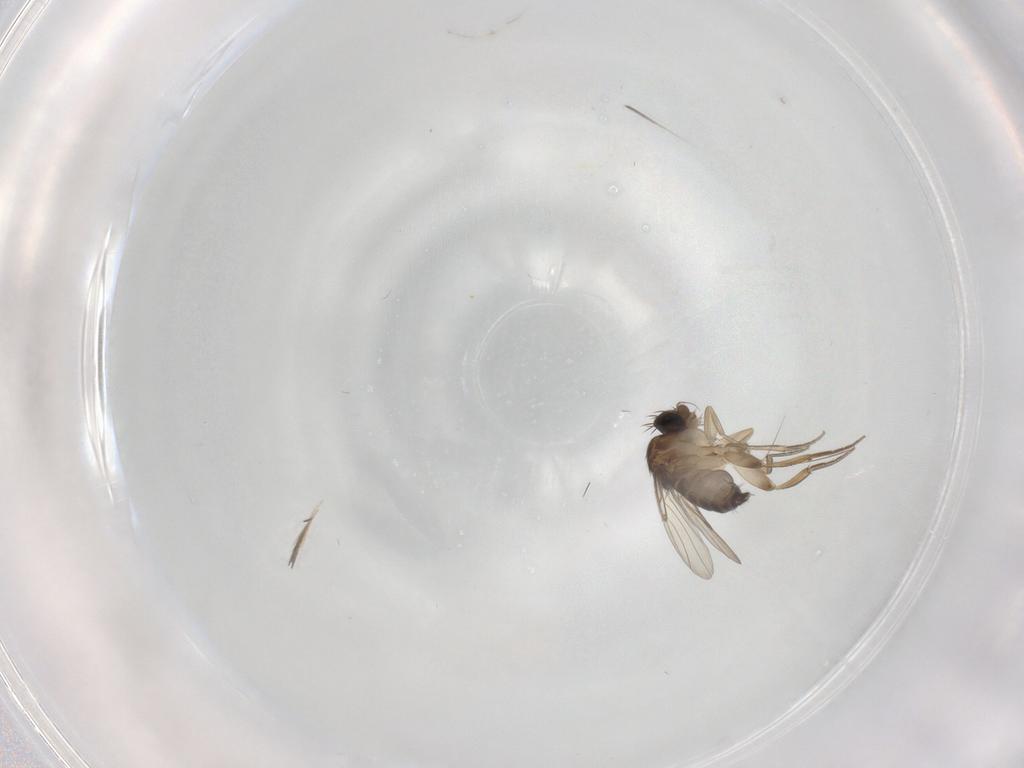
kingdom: Animalia
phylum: Arthropoda
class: Insecta
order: Diptera
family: Phoridae
